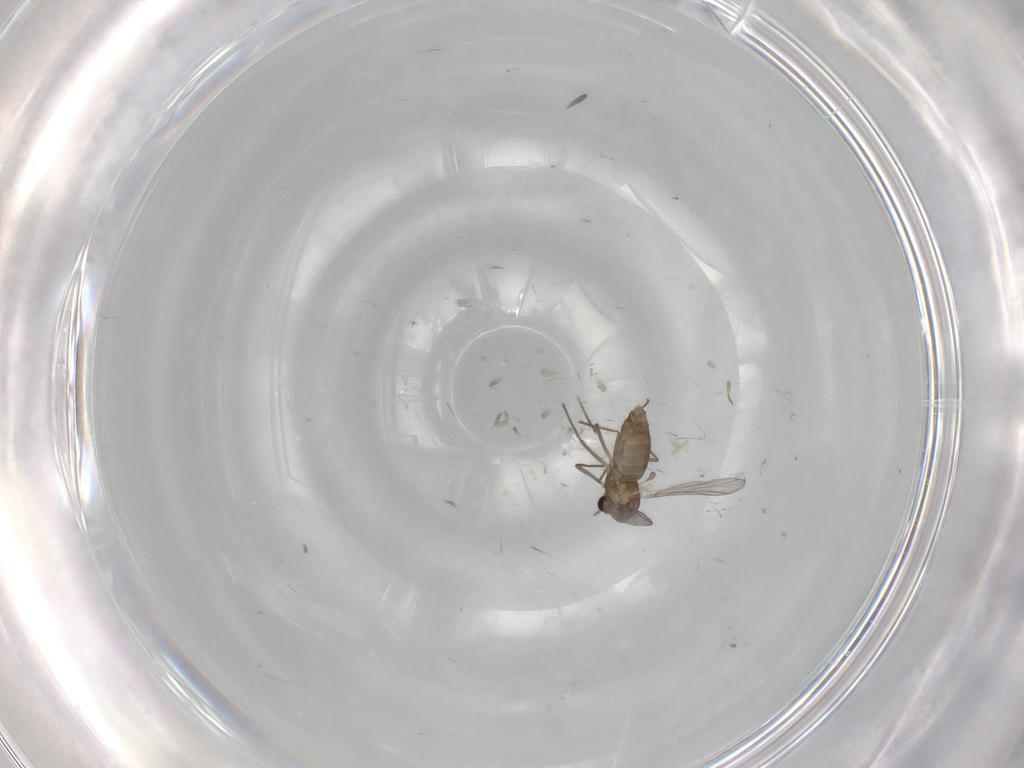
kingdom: Animalia
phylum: Arthropoda
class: Insecta
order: Diptera
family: Chironomidae
